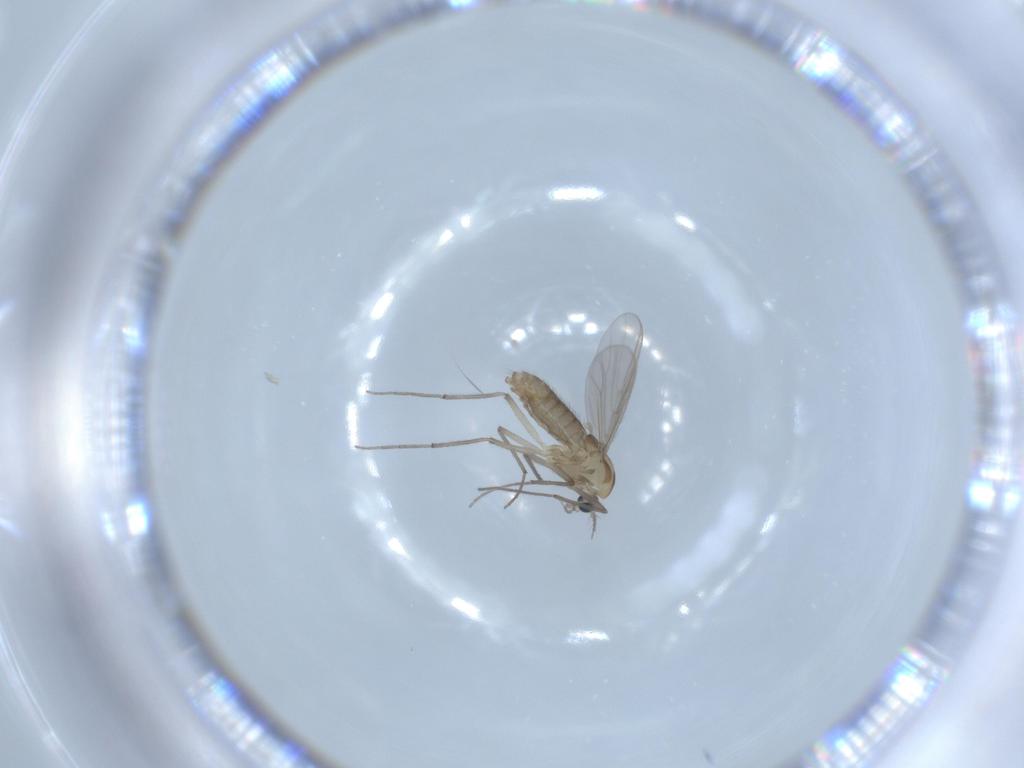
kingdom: Animalia
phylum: Arthropoda
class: Insecta
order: Diptera
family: Chironomidae
